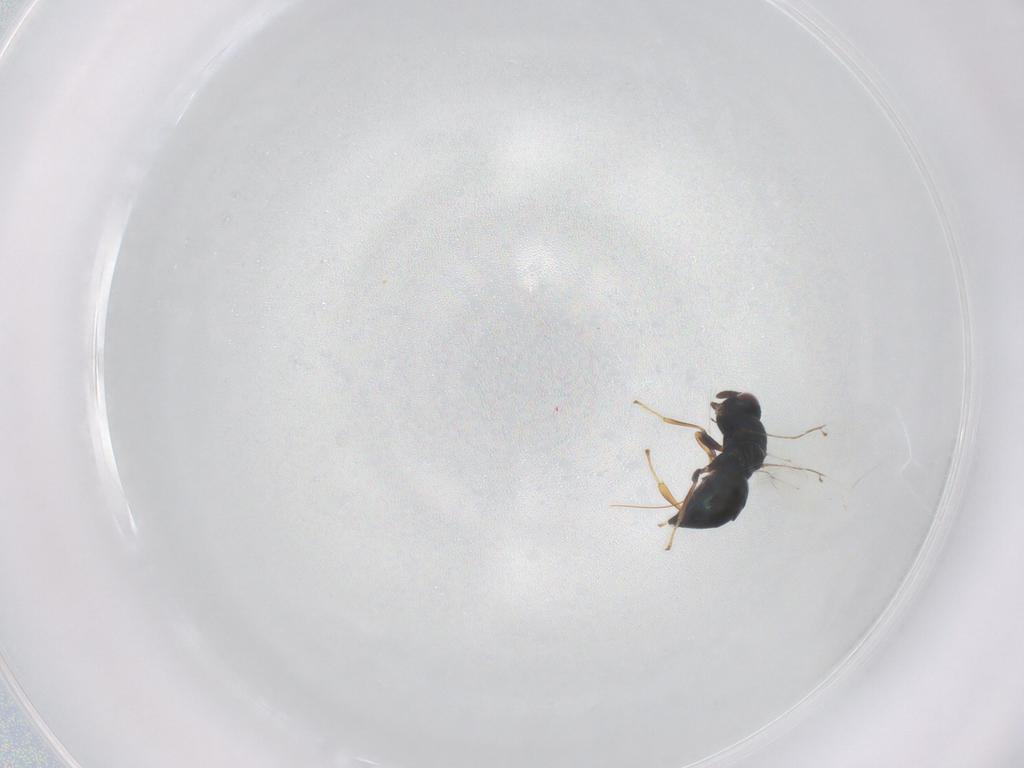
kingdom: Animalia
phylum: Arthropoda
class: Insecta
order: Hymenoptera
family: Pteromalidae
